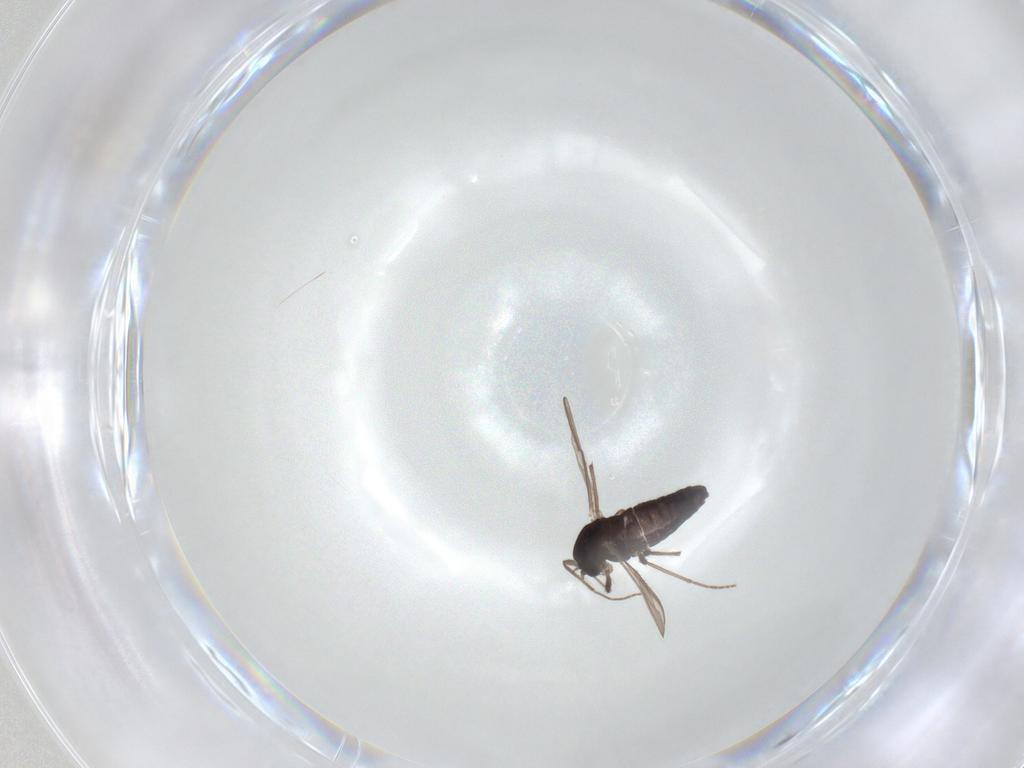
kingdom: Animalia
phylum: Arthropoda
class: Insecta
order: Diptera
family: Chironomidae
